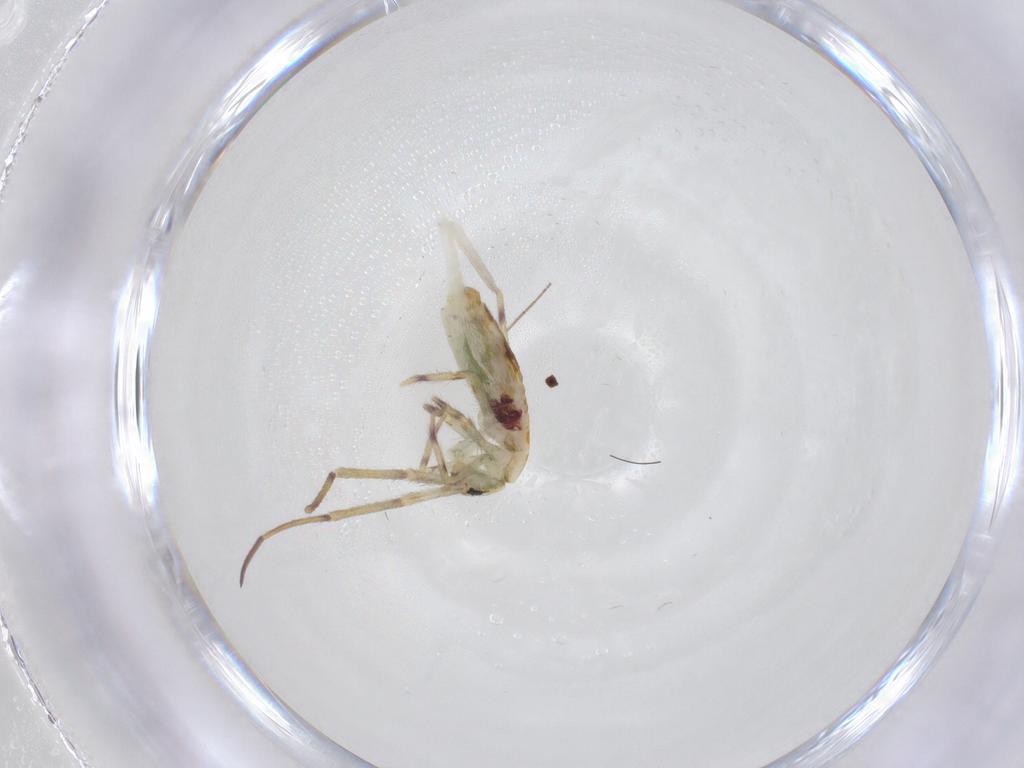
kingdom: Animalia
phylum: Arthropoda
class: Collembola
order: Entomobryomorpha
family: Entomobryidae
